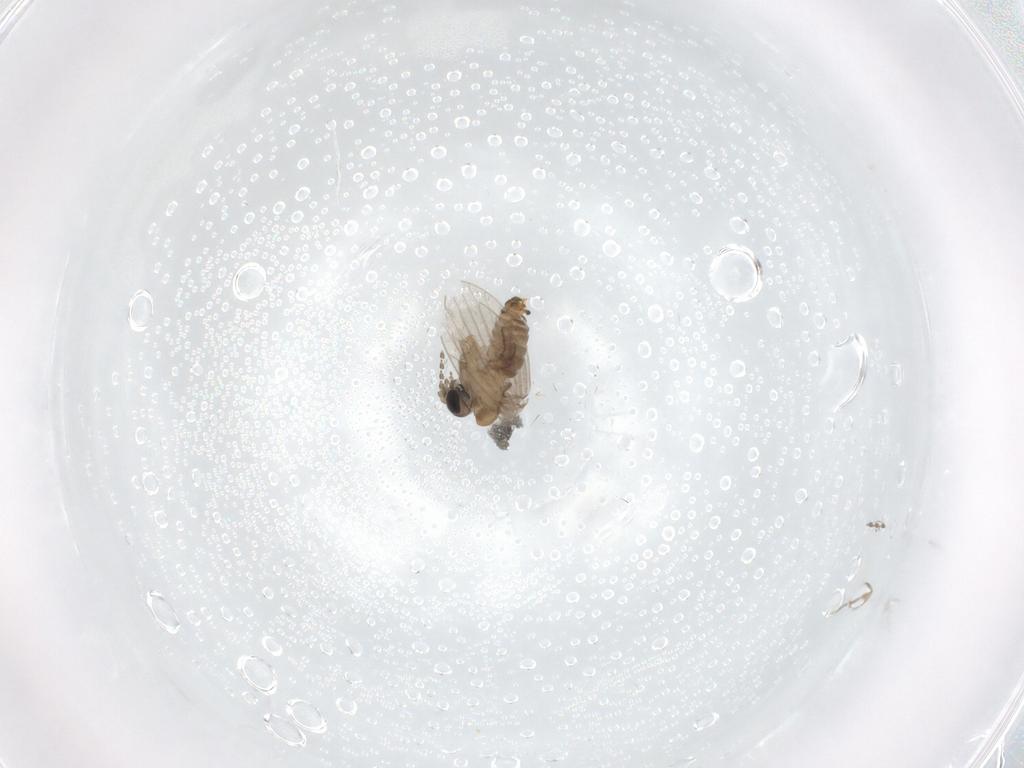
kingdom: Animalia
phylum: Arthropoda
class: Insecta
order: Diptera
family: Psychodidae
